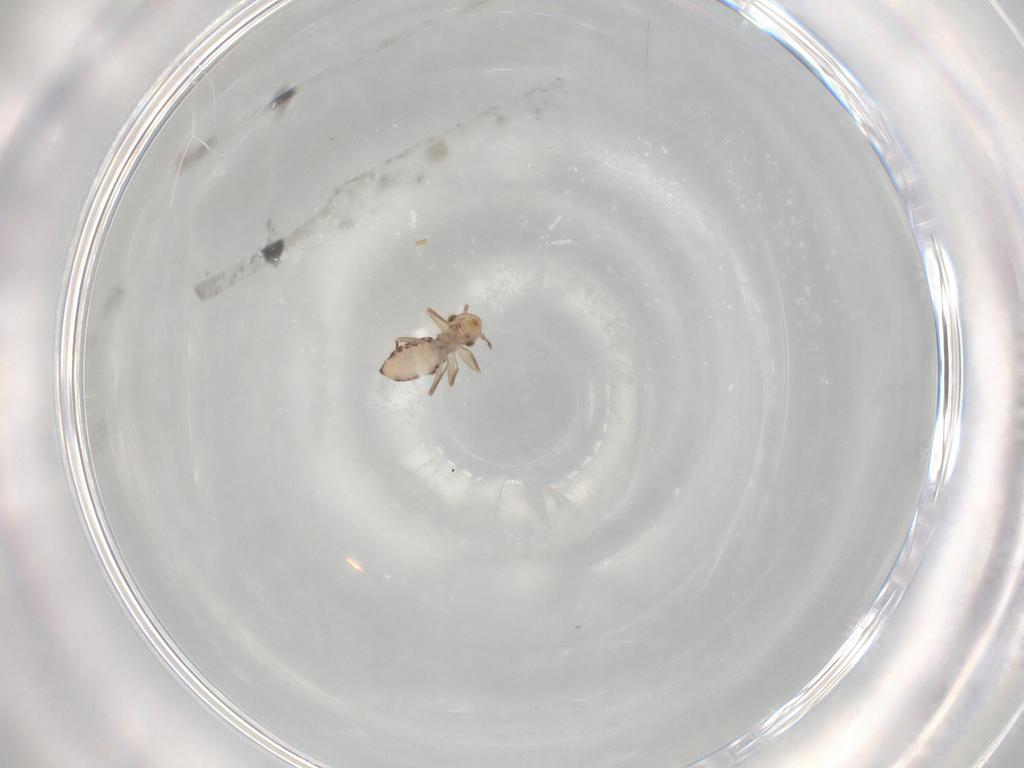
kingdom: Animalia
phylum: Arthropoda
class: Insecta
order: Psocodea
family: Lepidopsocidae
